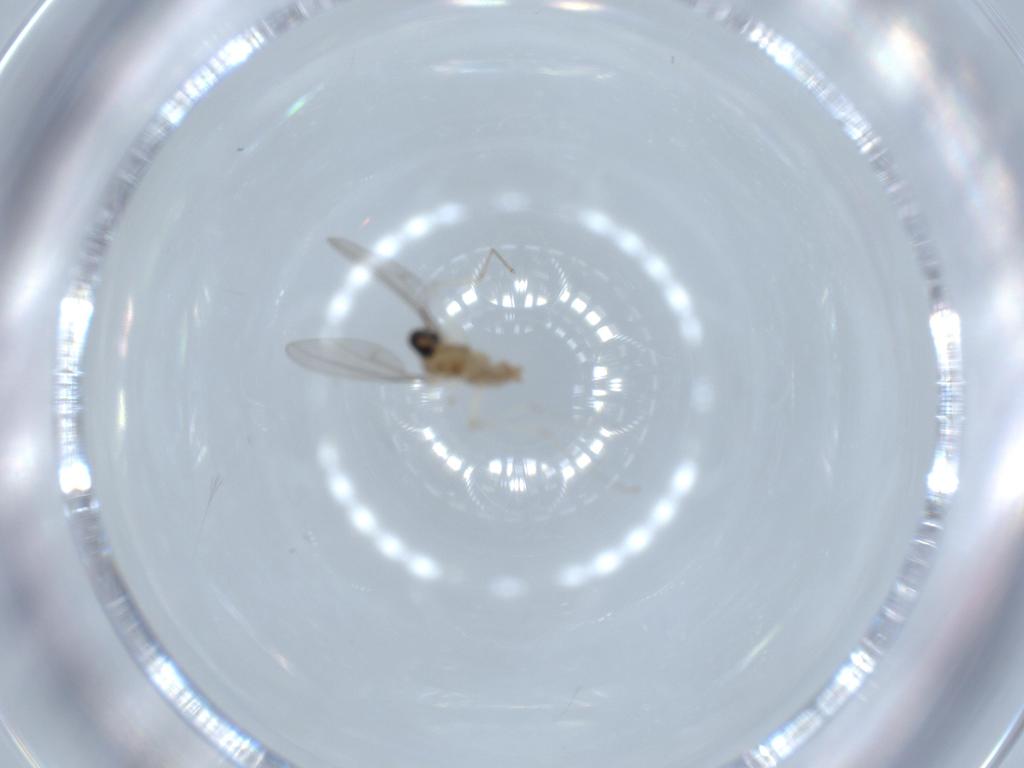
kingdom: Animalia
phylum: Arthropoda
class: Insecta
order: Diptera
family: Cecidomyiidae
